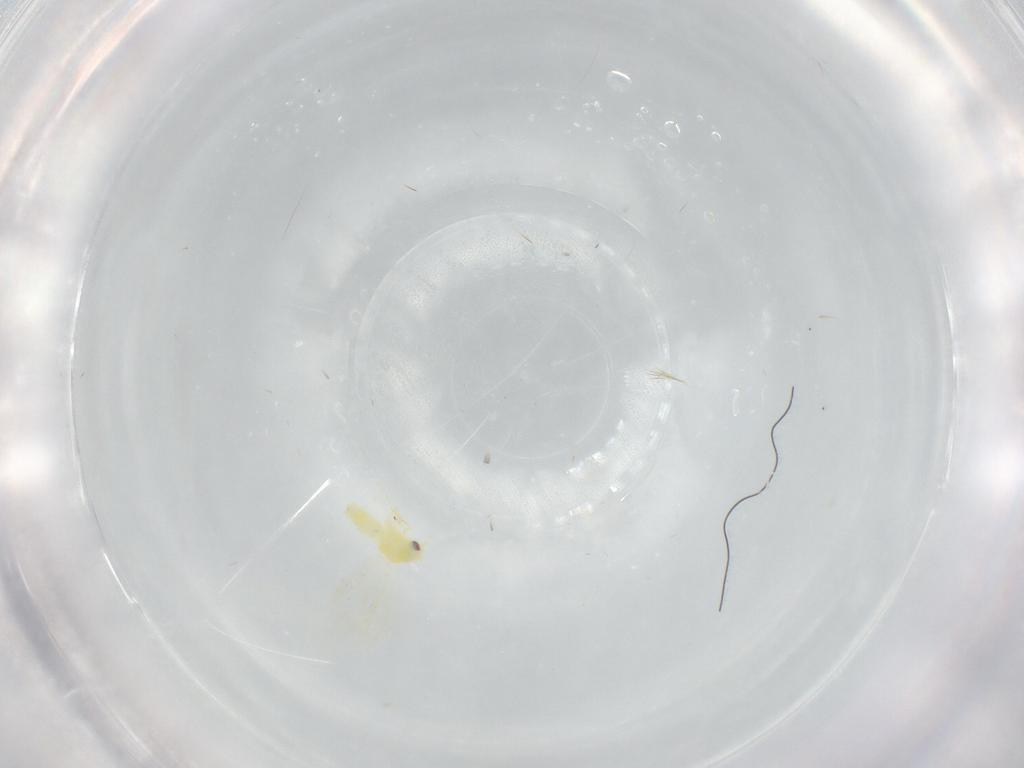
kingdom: Animalia
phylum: Arthropoda
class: Insecta
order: Hemiptera
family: Aleyrodidae
